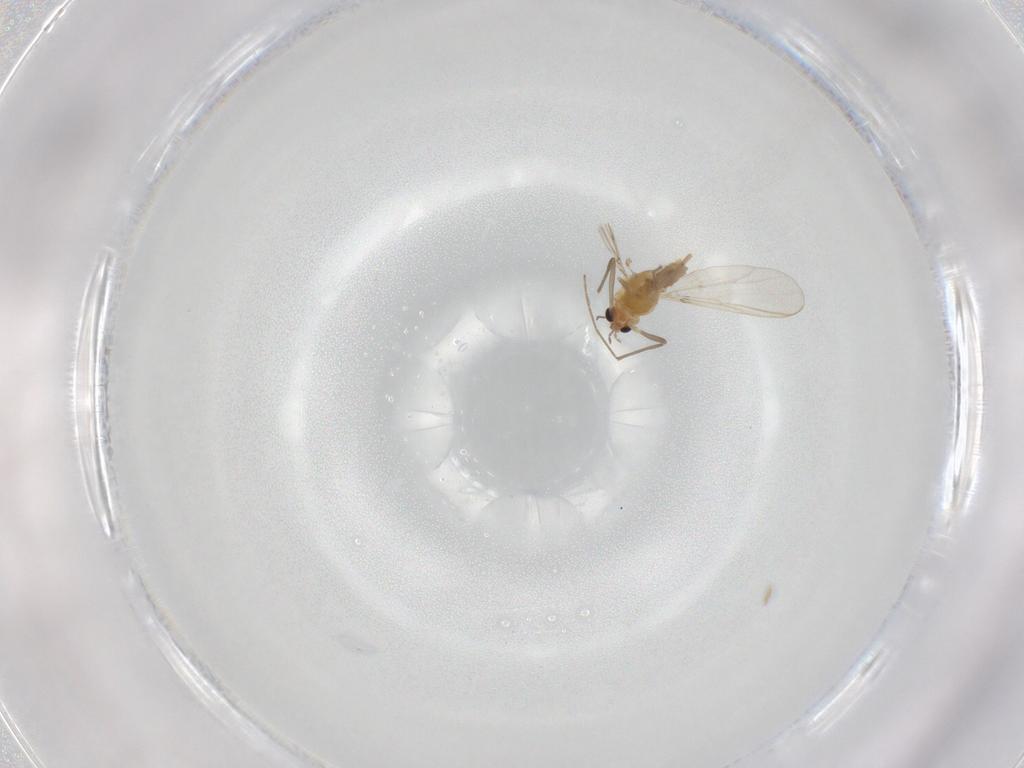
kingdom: Animalia
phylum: Arthropoda
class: Insecta
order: Diptera
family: Chironomidae
